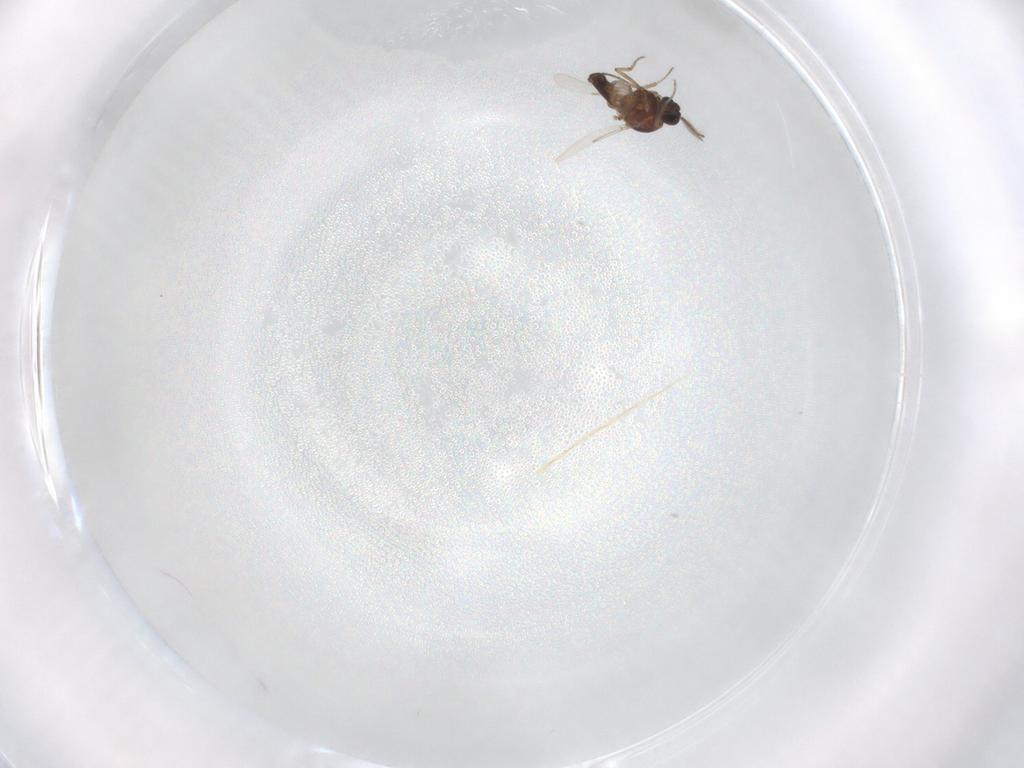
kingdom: Animalia
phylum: Arthropoda
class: Insecta
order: Diptera
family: Ceratopogonidae
